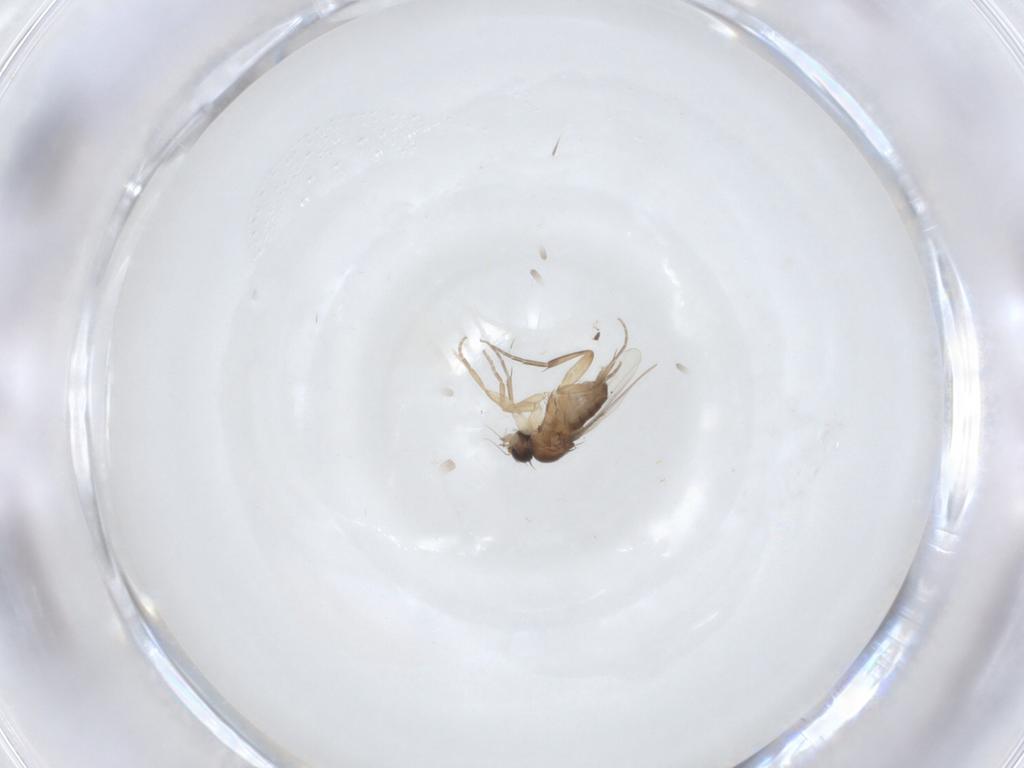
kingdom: Animalia
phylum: Arthropoda
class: Insecta
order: Diptera
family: Phoridae
